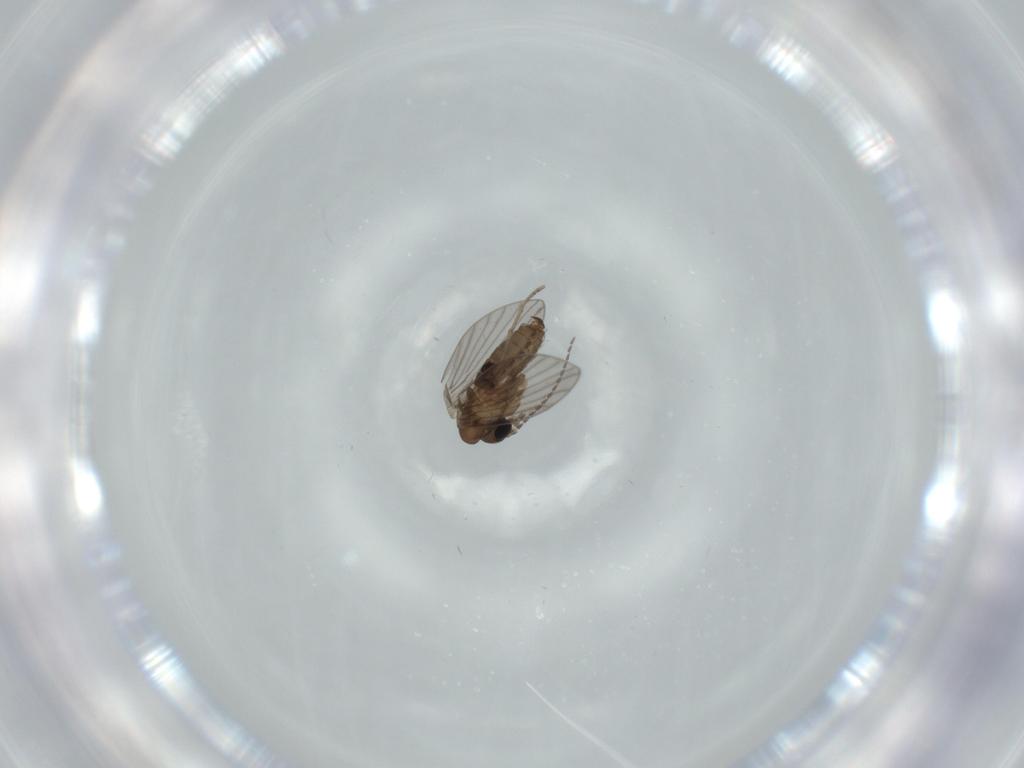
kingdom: Animalia
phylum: Arthropoda
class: Insecta
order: Diptera
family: Psychodidae
